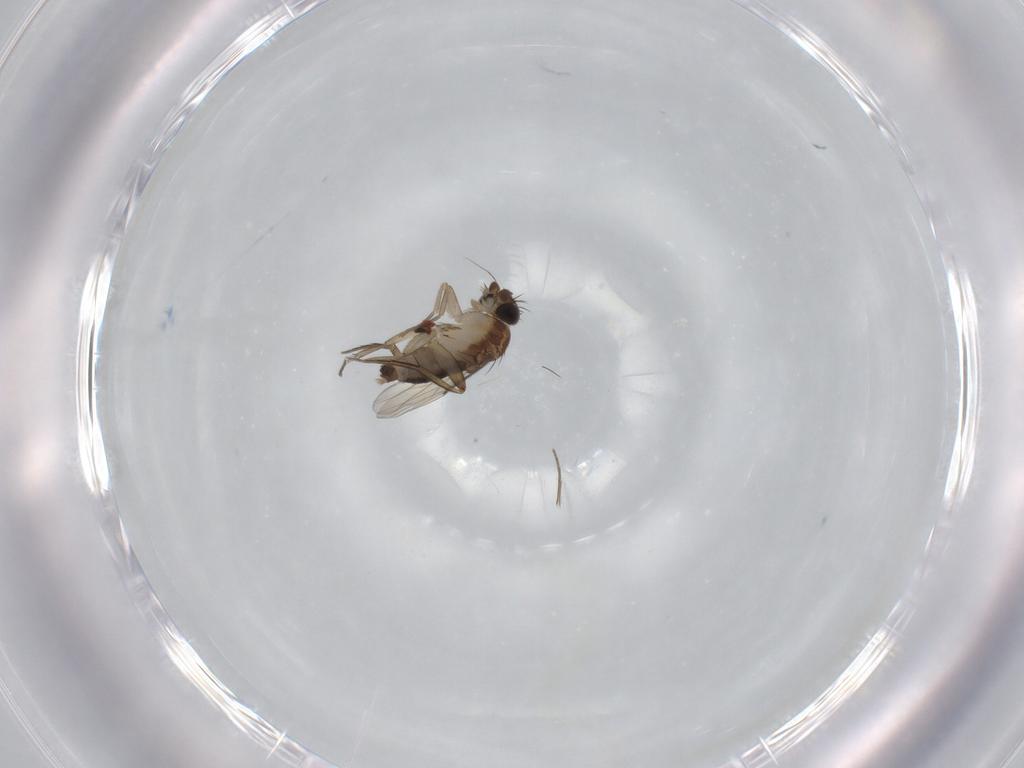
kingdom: Animalia
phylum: Arthropoda
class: Insecta
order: Diptera
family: Phoridae
